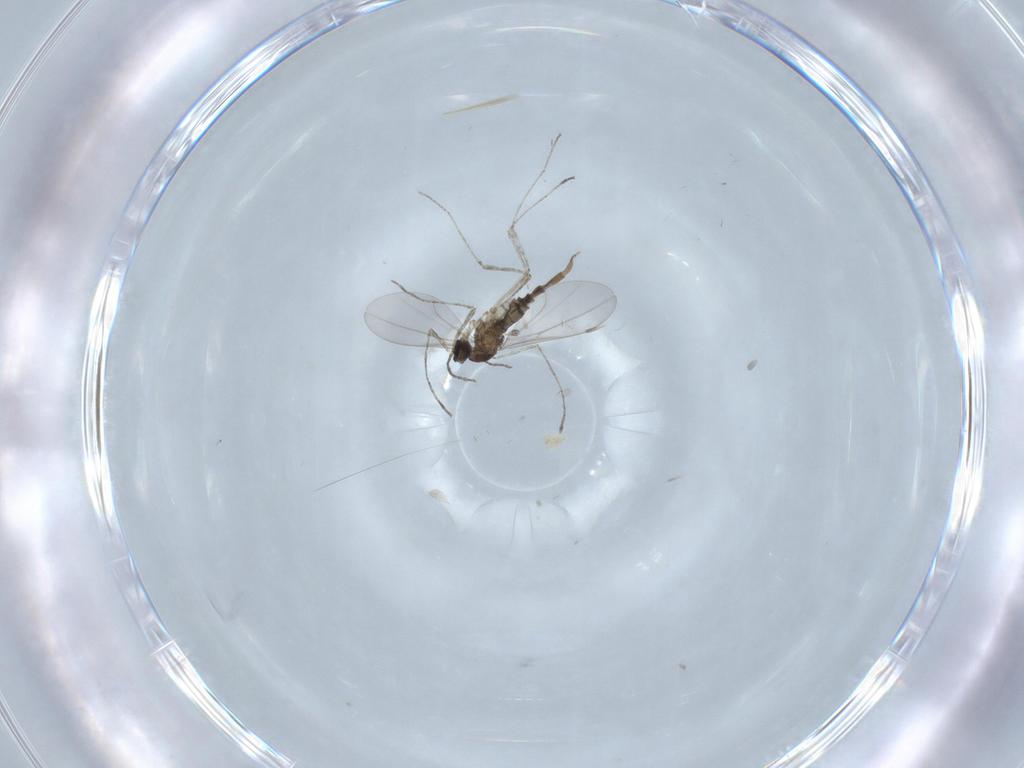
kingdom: Animalia
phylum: Arthropoda
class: Insecta
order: Diptera
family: Cecidomyiidae
